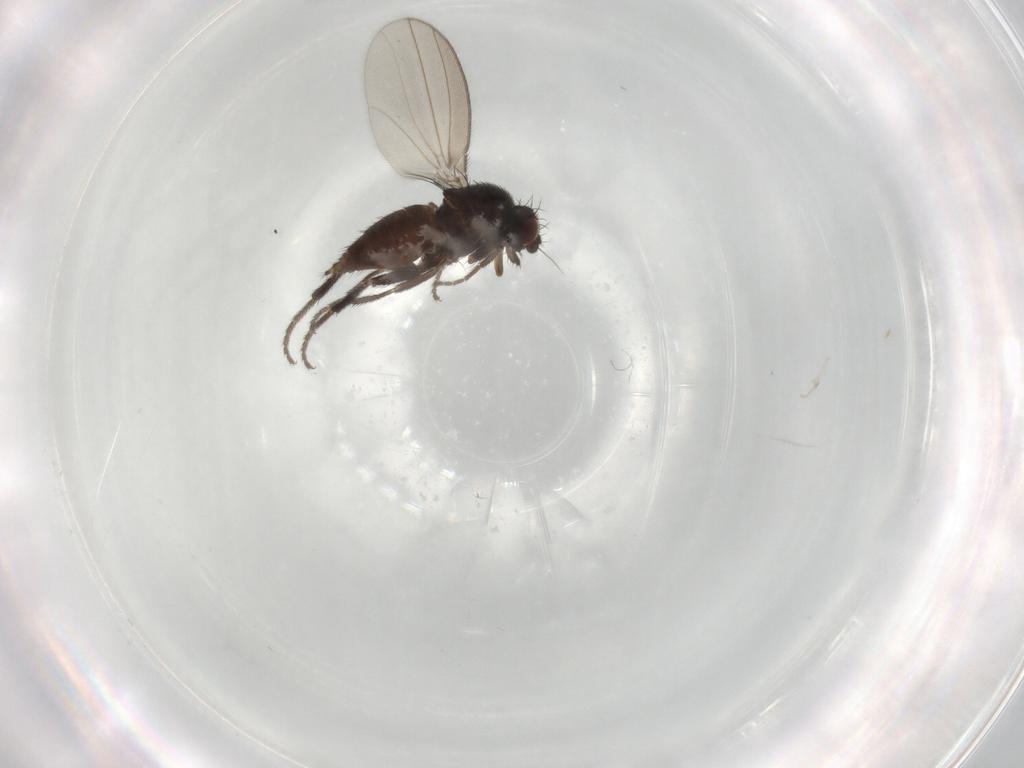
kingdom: Animalia
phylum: Arthropoda
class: Insecta
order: Diptera
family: Milichiidae
